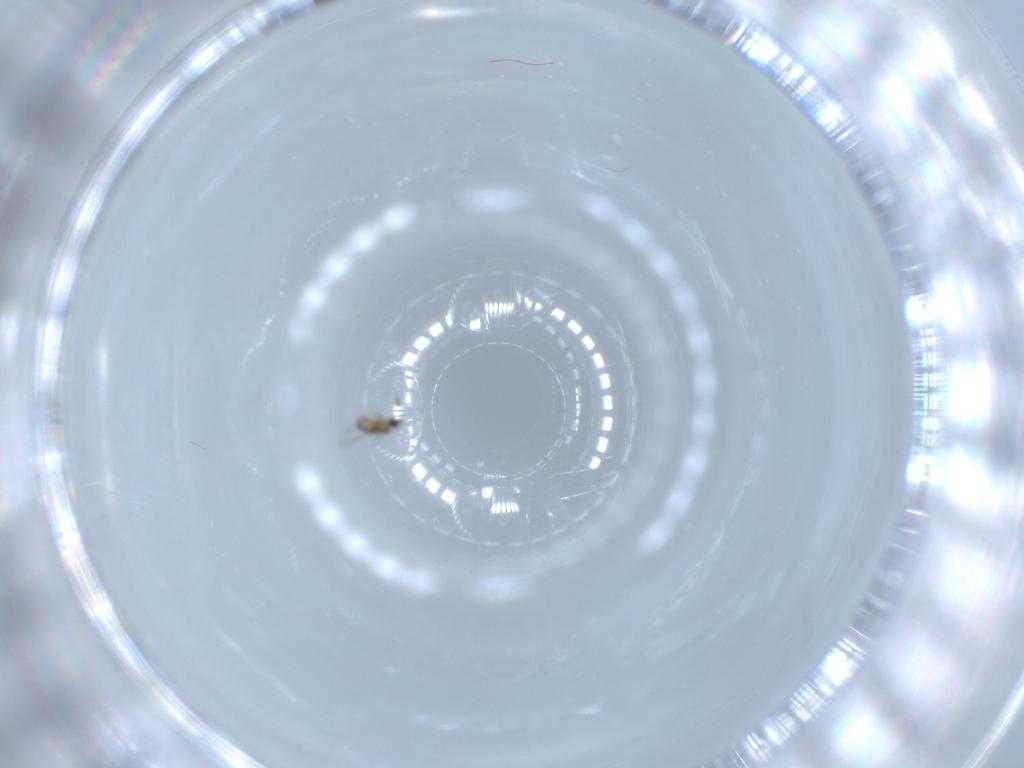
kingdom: Animalia
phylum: Arthropoda
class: Insecta
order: Hymenoptera
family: Mymaridae
